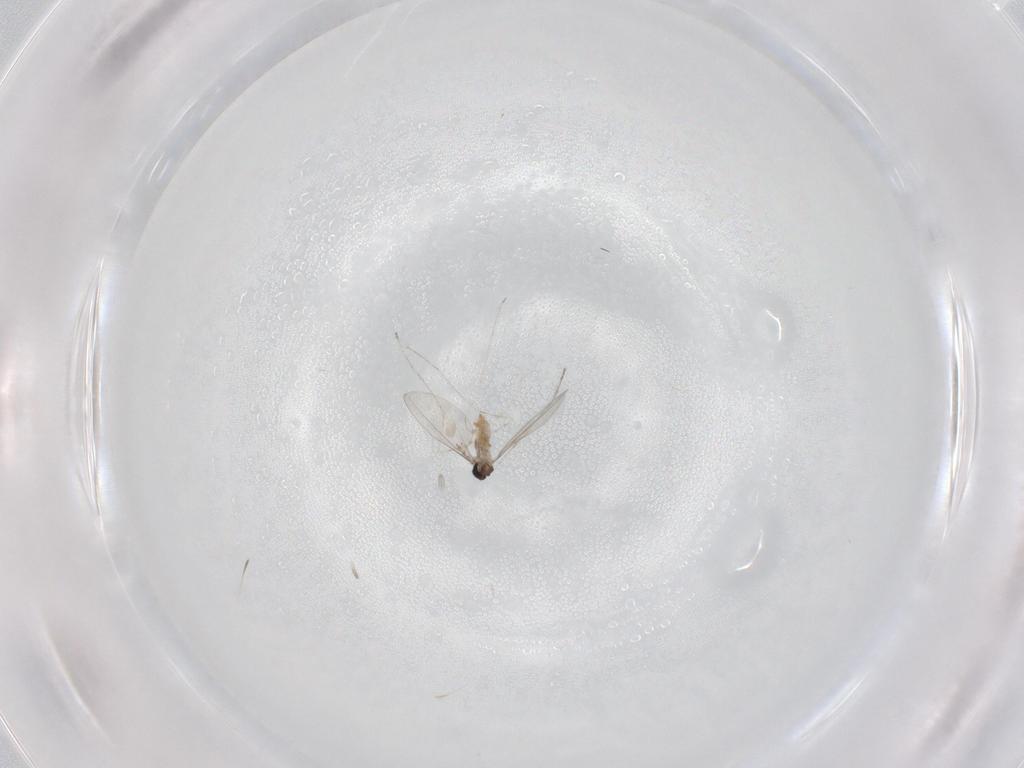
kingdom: Animalia
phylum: Arthropoda
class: Insecta
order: Diptera
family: Cecidomyiidae
